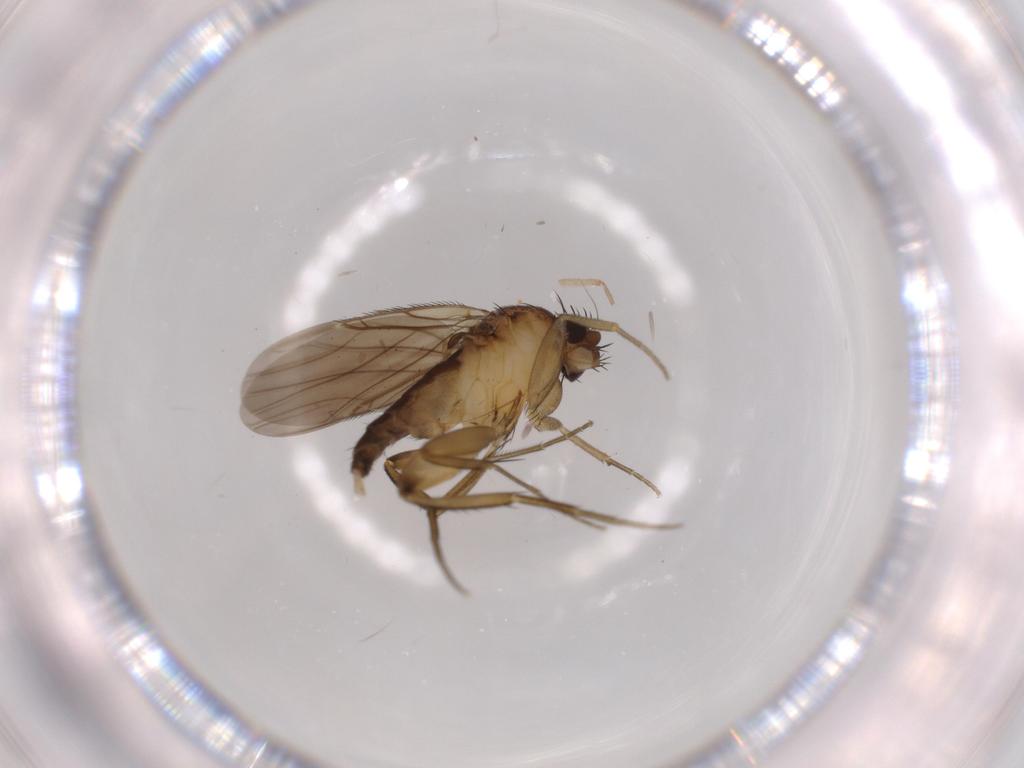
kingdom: Animalia
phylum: Arthropoda
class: Insecta
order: Diptera
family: Phoridae
